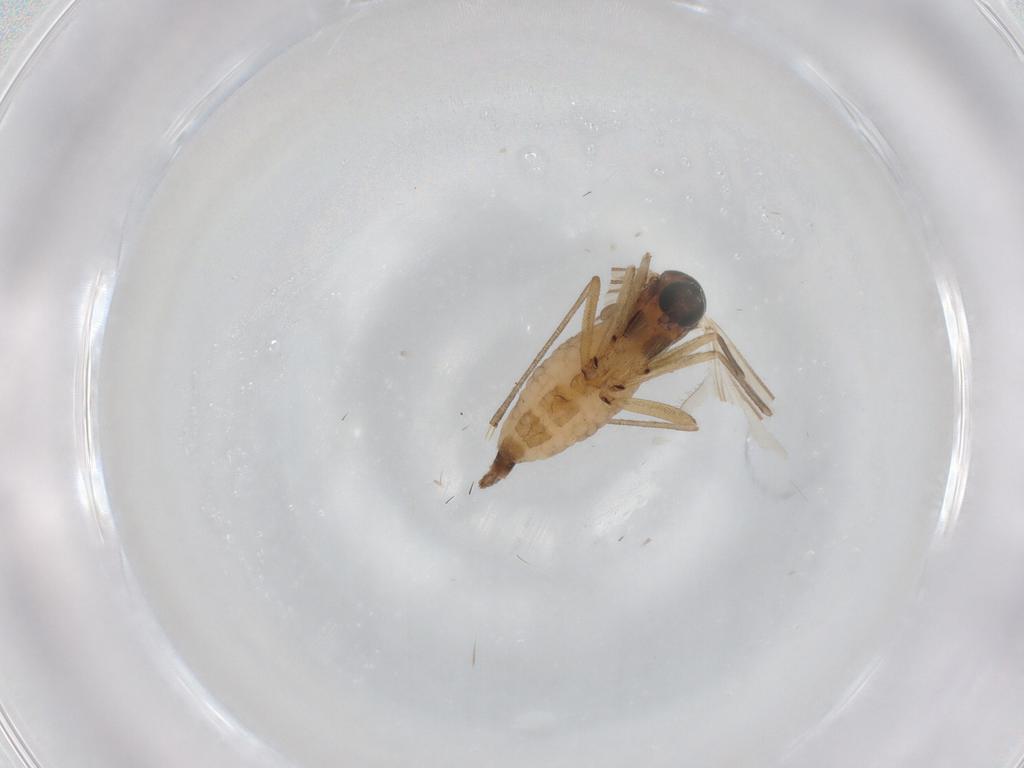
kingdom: Animalia
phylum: Arthropoda
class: Insecta
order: Diptera
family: Sciaridae
